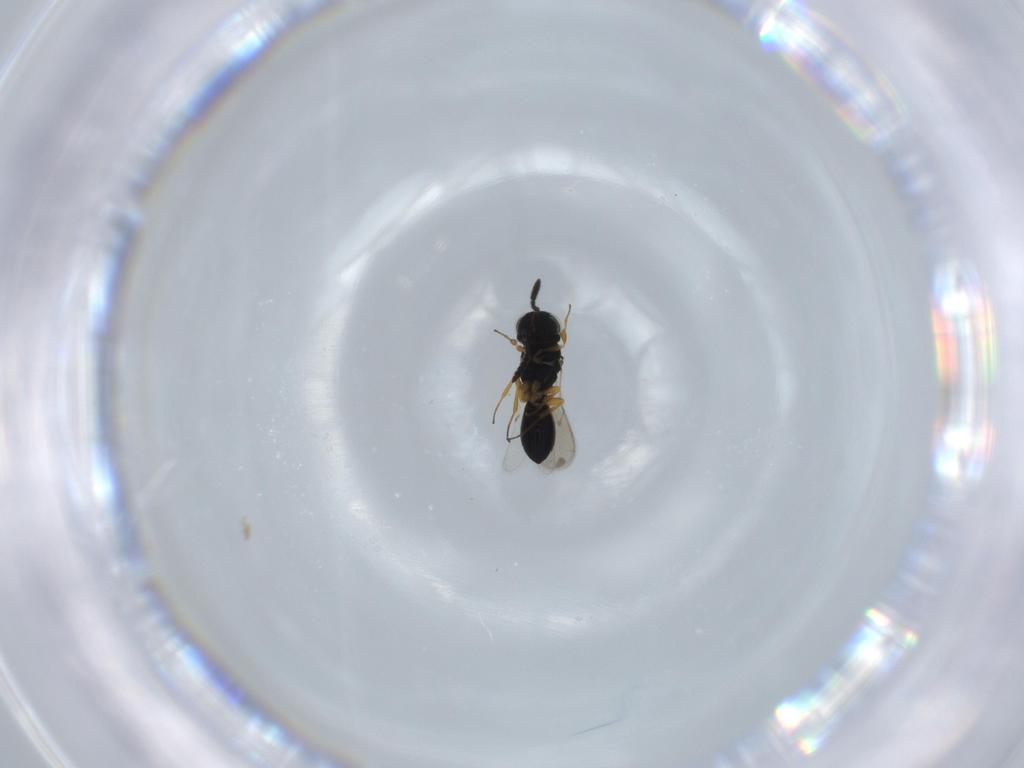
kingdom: Animalia
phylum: Arthropoda
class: Insecta
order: Hymenoptera
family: Scelionidae
